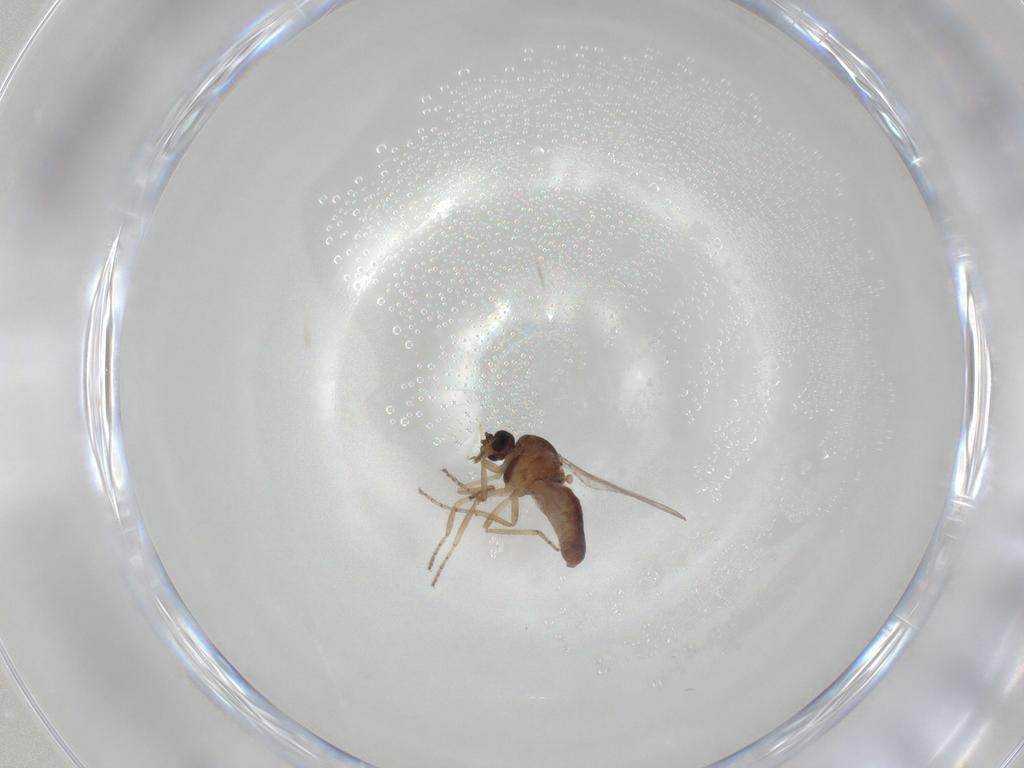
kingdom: Animalia
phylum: Arthropoda
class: Insecta
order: Diptera
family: Ceratopogonidae
